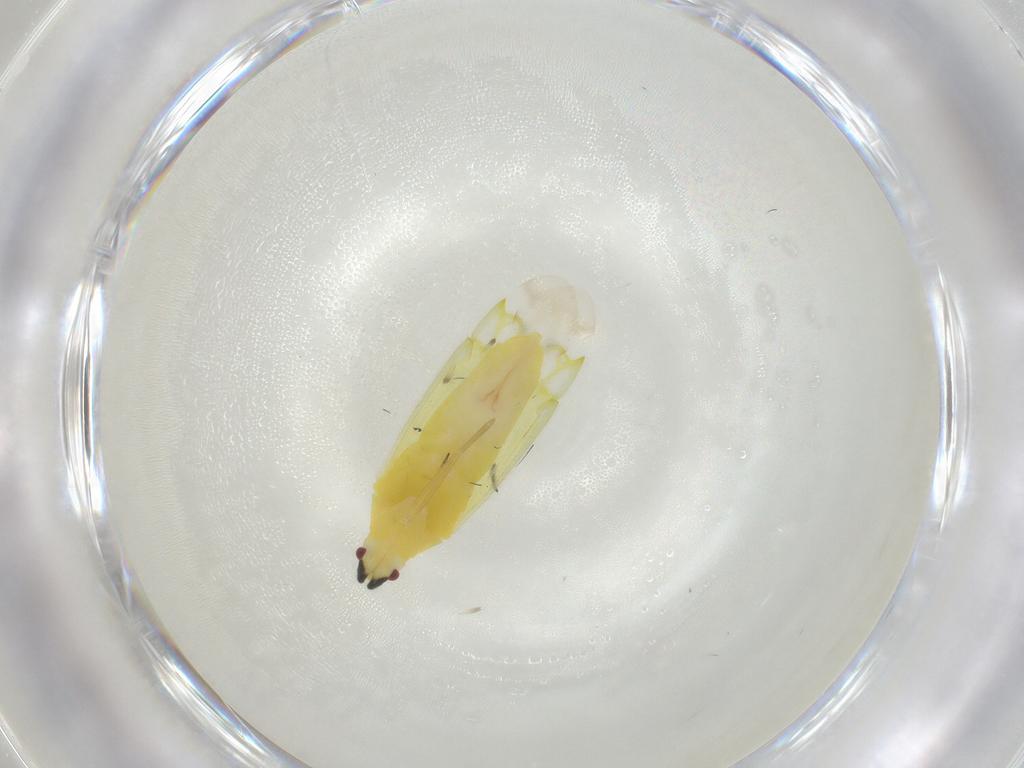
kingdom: Animalia
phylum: Arthropoda
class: Insecta
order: Hemiptera
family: Miridae
